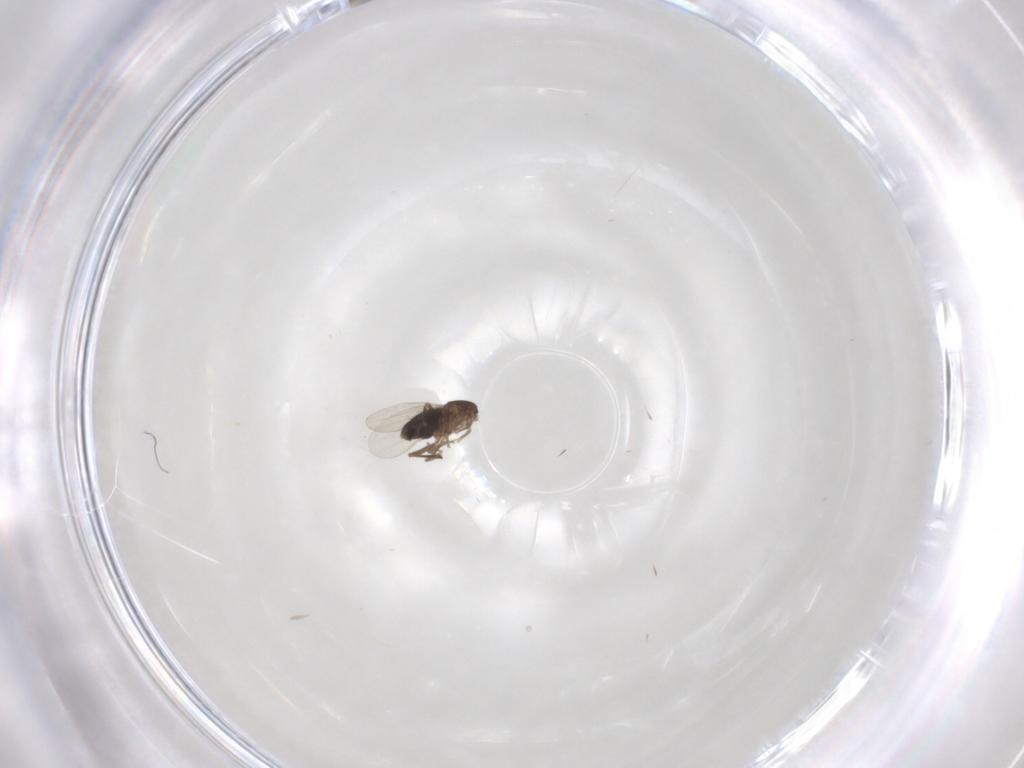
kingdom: Animalia
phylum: Arthropoda
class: Insecta
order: Diptera
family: Phoridae
